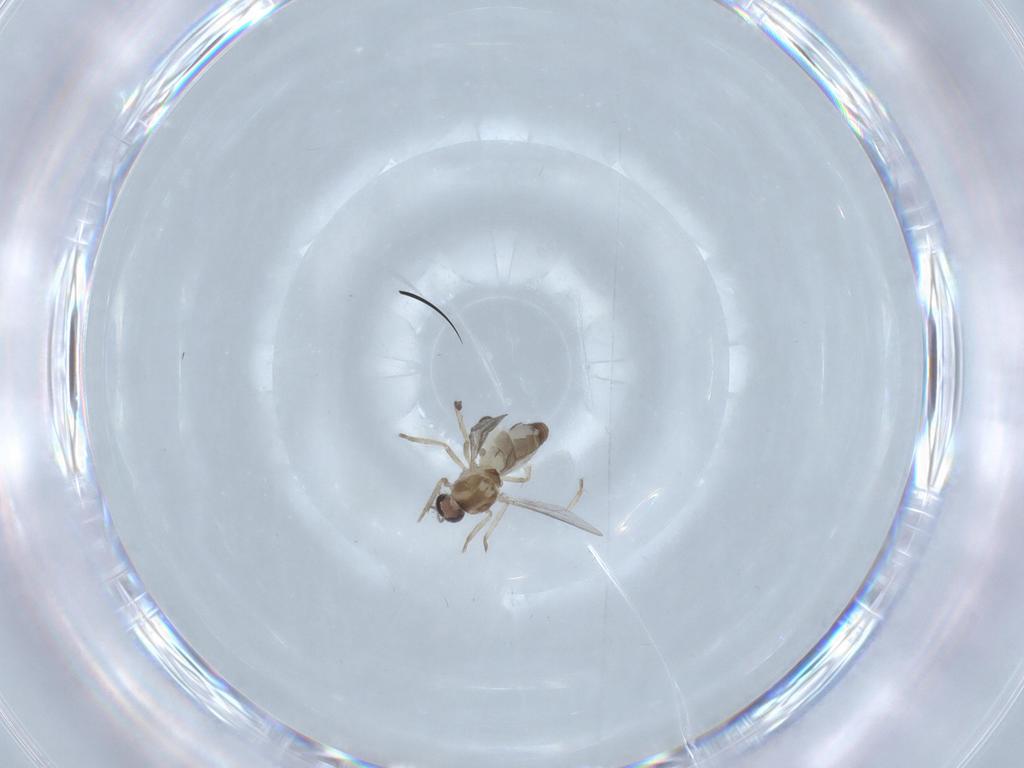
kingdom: Animalia
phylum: Arthropoda
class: Insecta
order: Diptera
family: Ceratopogonidae
